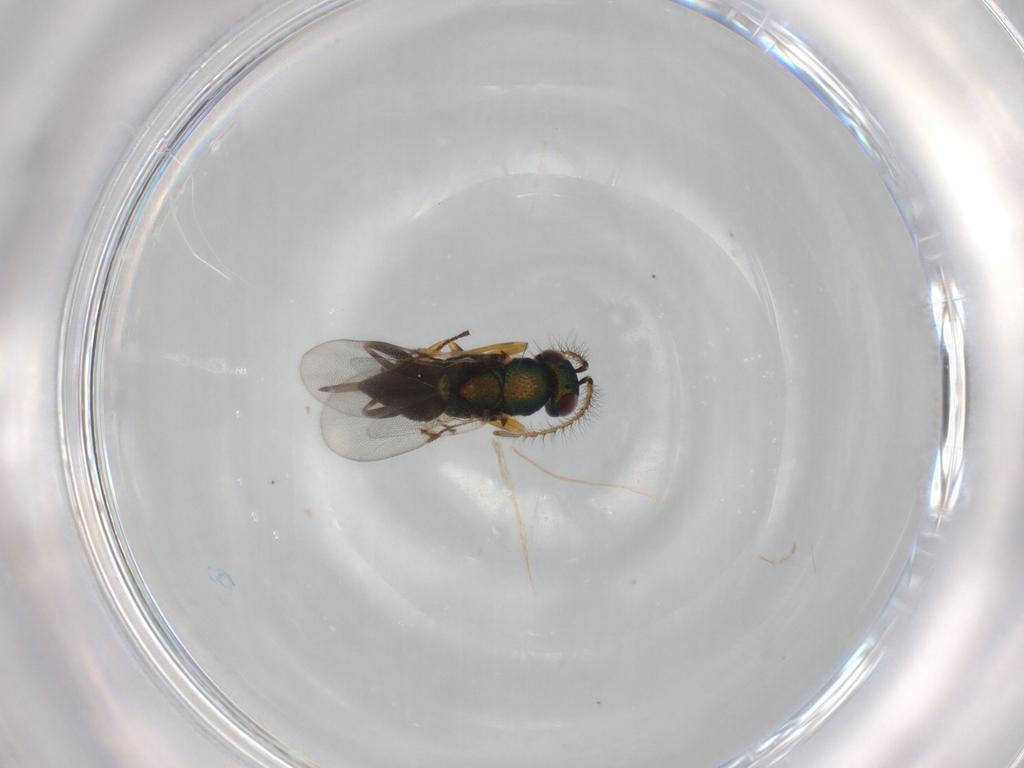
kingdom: Animalia
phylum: Arthropoda
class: Insecta
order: Hymenoptera
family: Encyrtidae
